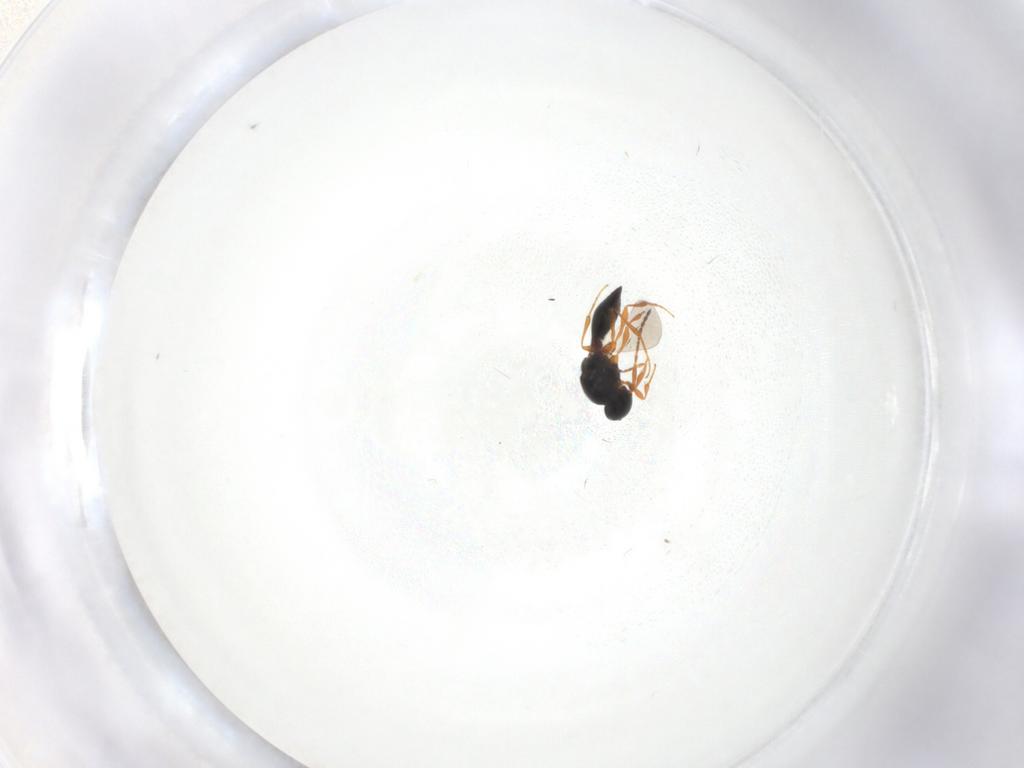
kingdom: Animalia
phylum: Arthropoda
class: Insecta
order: Hymenoptera
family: Platygastridae
